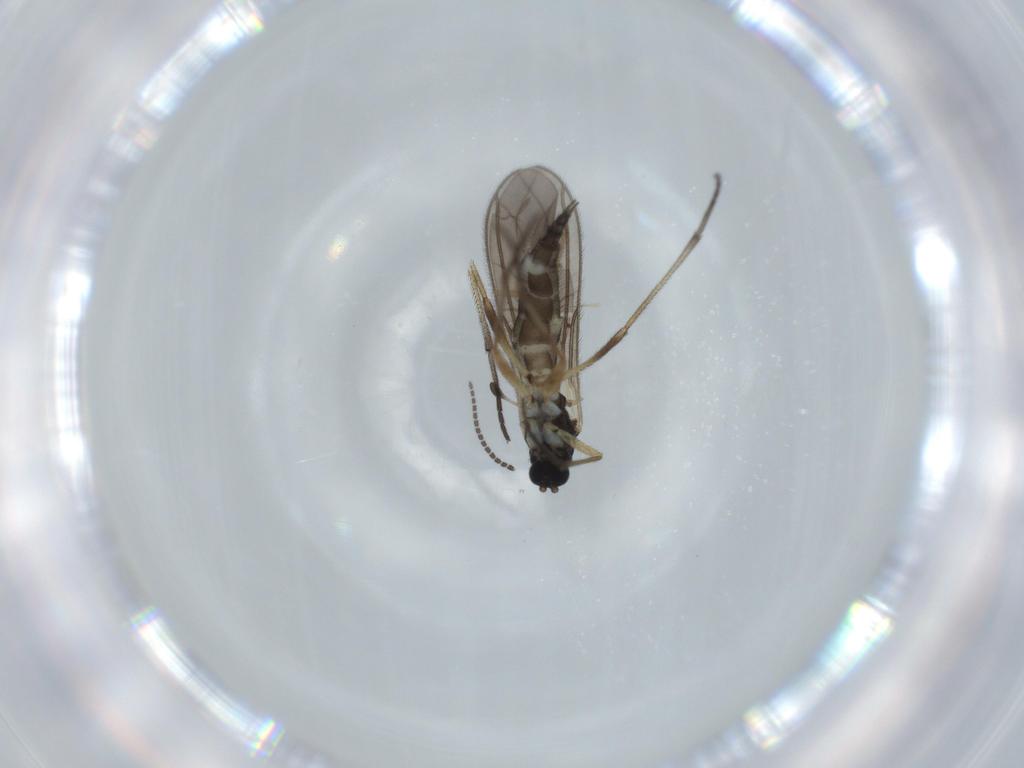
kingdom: Animalia
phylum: Arthropoda
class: Insecta
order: Diptera
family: Sciaridae
